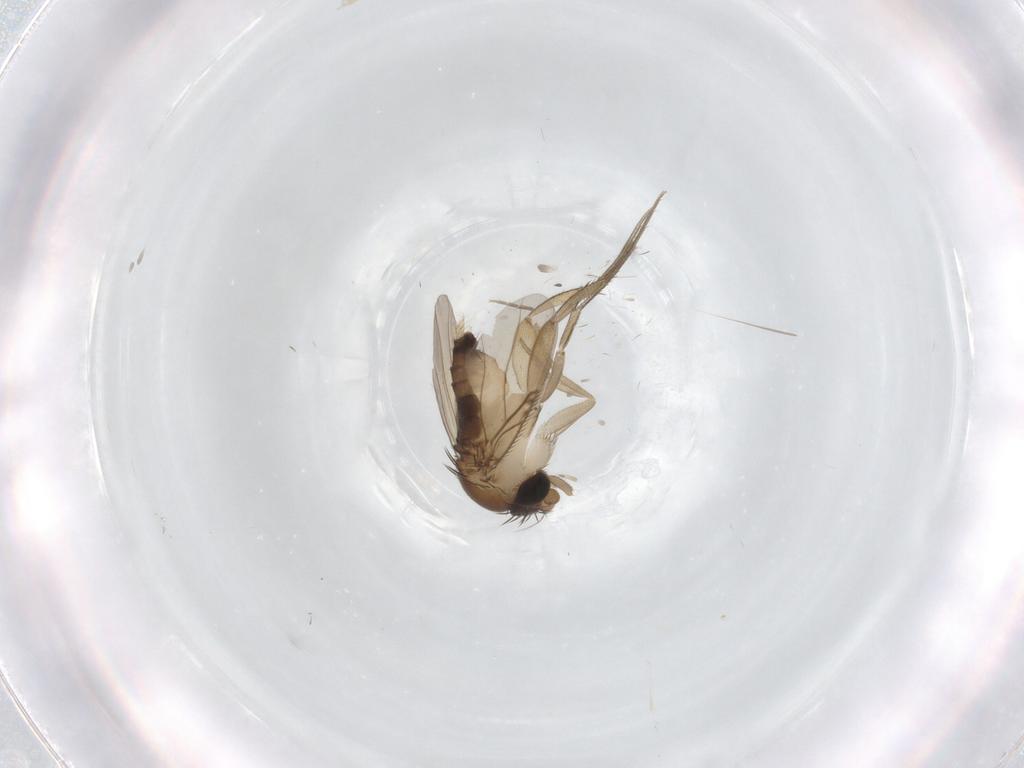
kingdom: Animalia
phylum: Arthropoda
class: Insecta
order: Diptera
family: Phoridae
